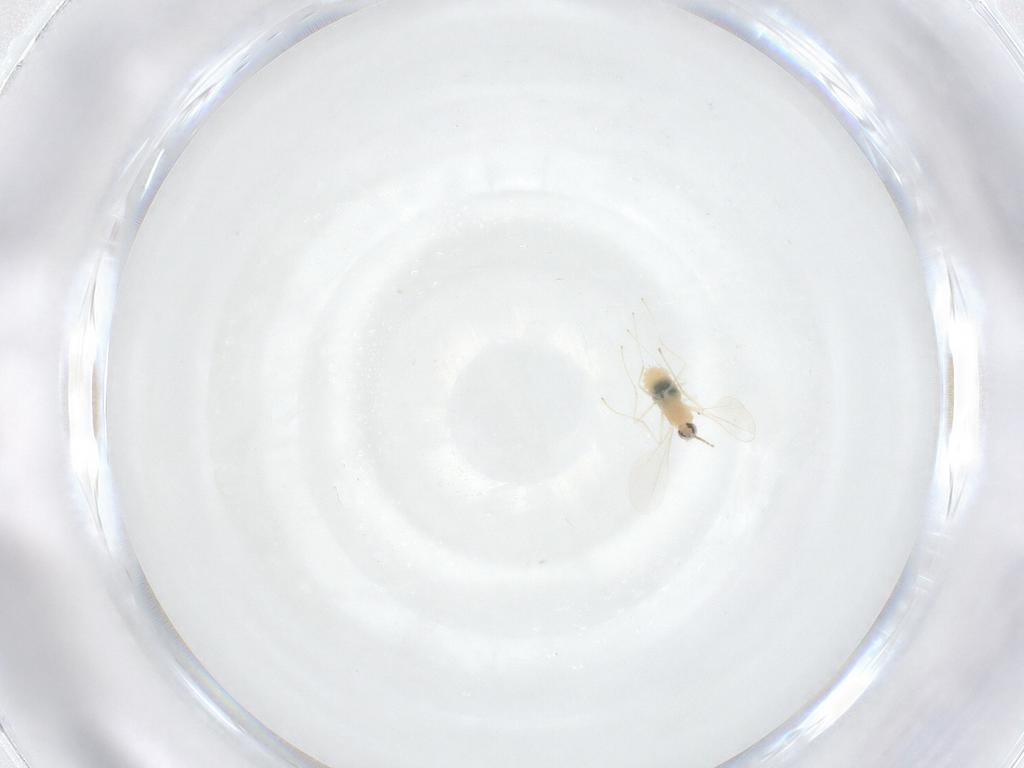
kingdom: Animalia
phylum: Arthropoda
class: Insecta
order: Diptera
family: Cecidomyiidae
